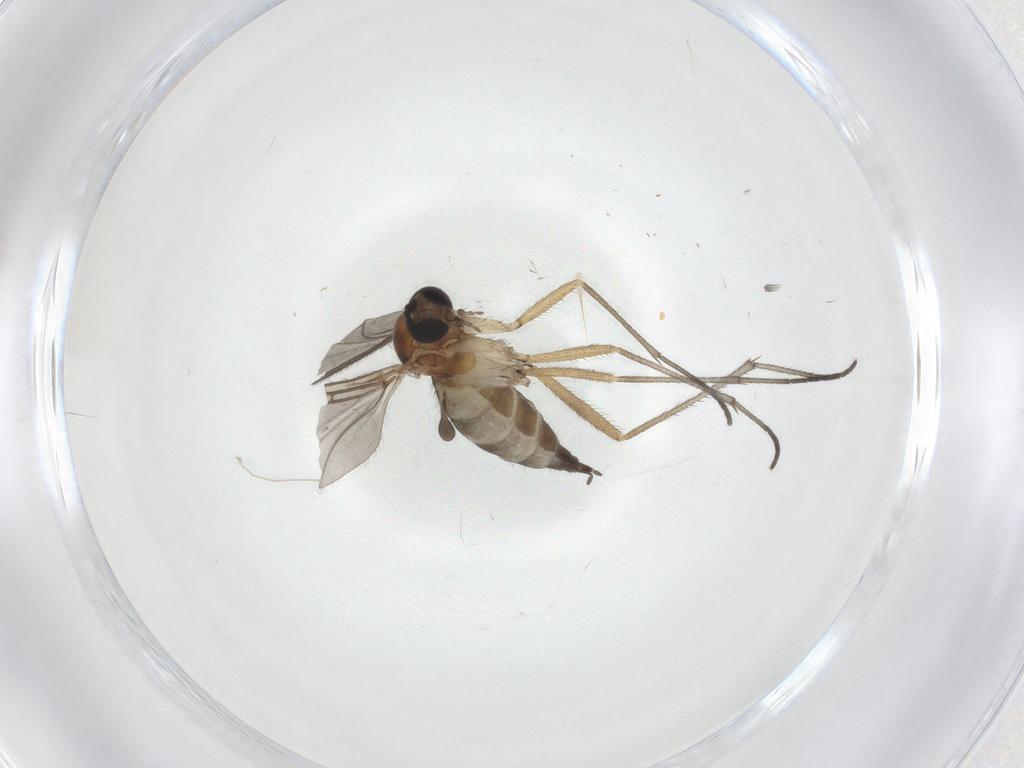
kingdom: Animalia
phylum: Arthropoda
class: Insecta
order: Diptera
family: Sciaridae
